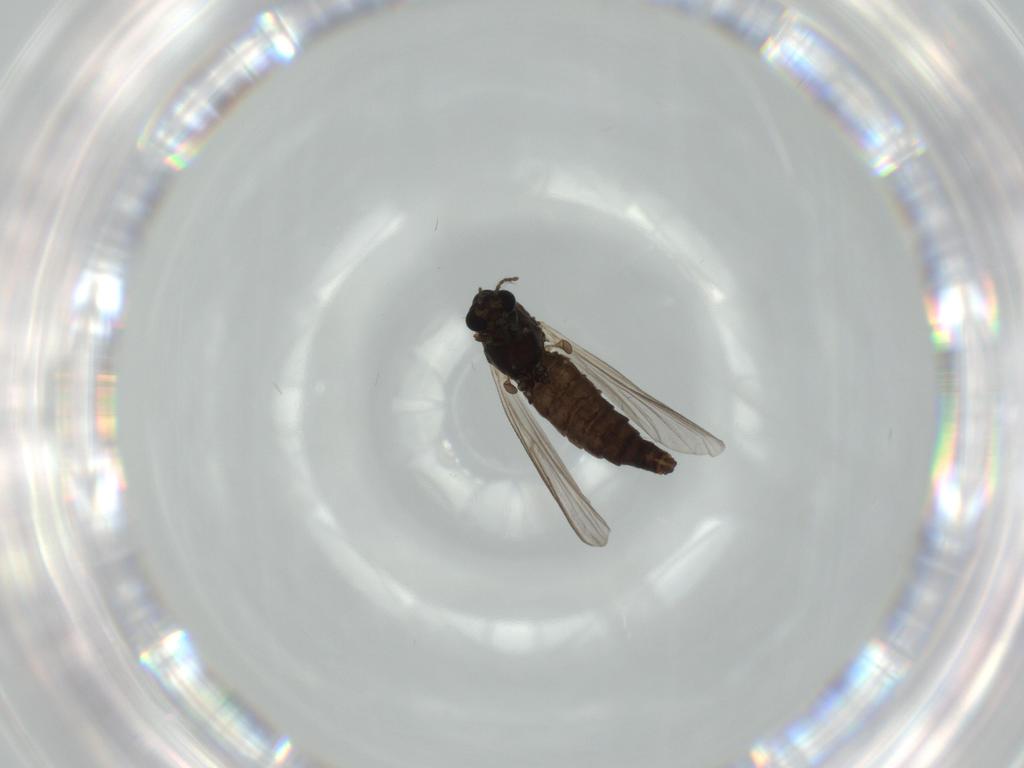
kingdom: Animalia
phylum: Arthropoda
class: Insecta
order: Diptera
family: Chironomidae
